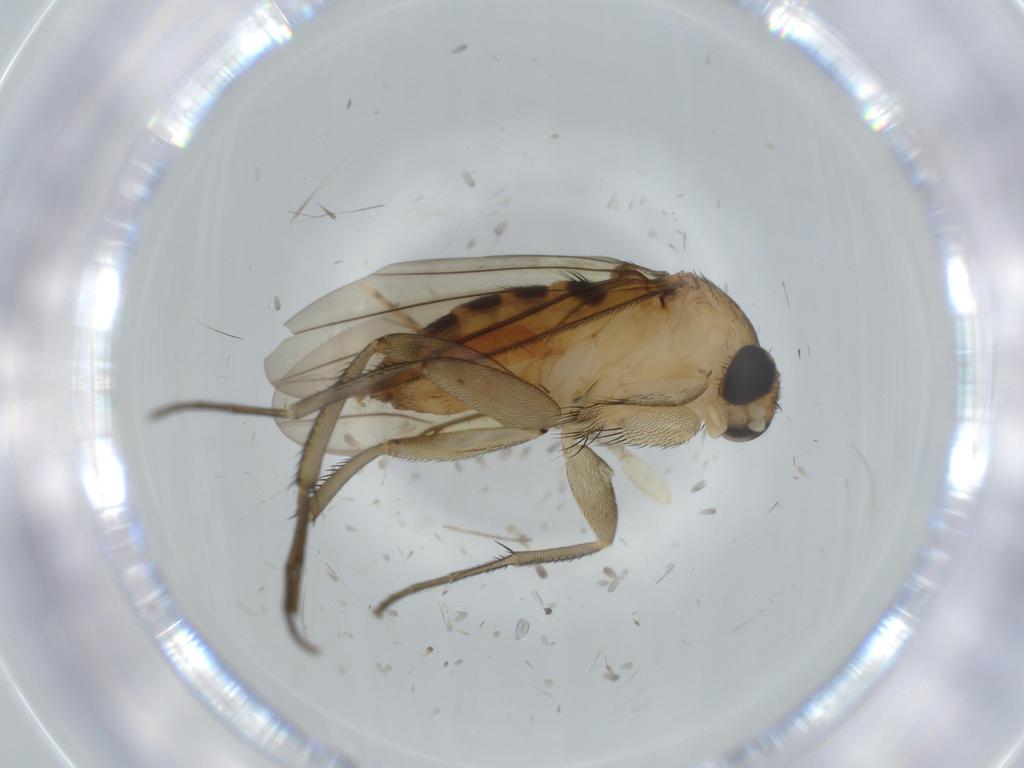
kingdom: Animalia
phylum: Arthropoda
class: Insecta
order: Diptera
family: Phoridae
